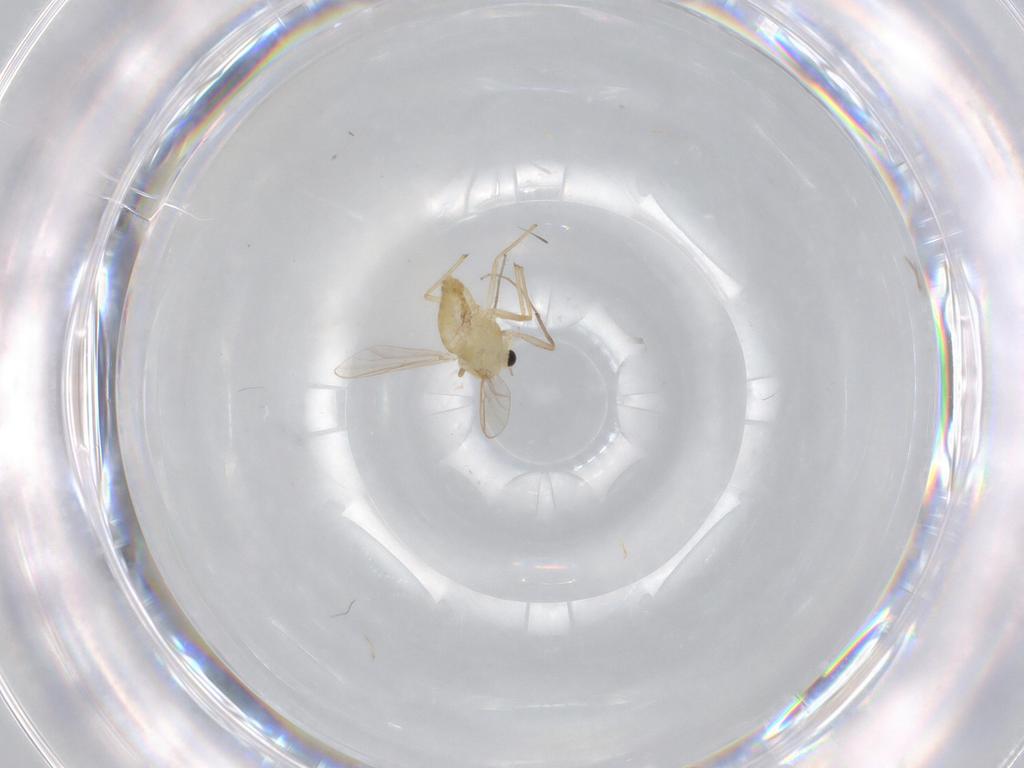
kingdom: Animalia
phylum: Arthropoda
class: Insecta
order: Diptera
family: Chironomidae
